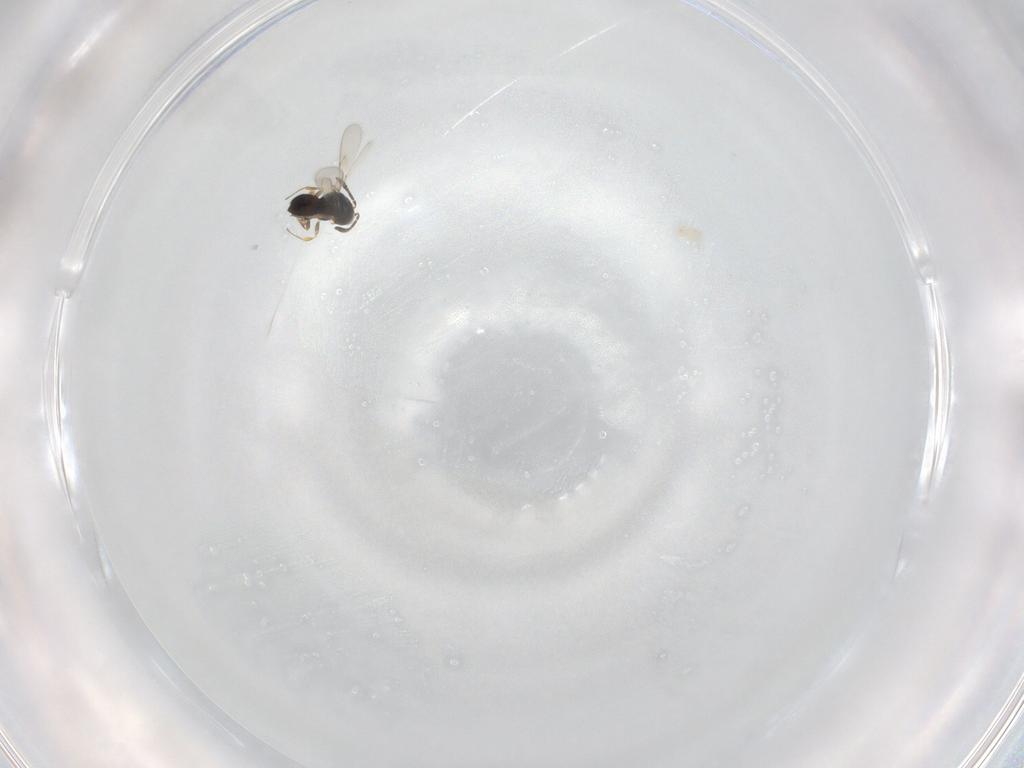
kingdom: Animalia
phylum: Arthropoda
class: Insecta
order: Hymenoptera
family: Scelionidae
